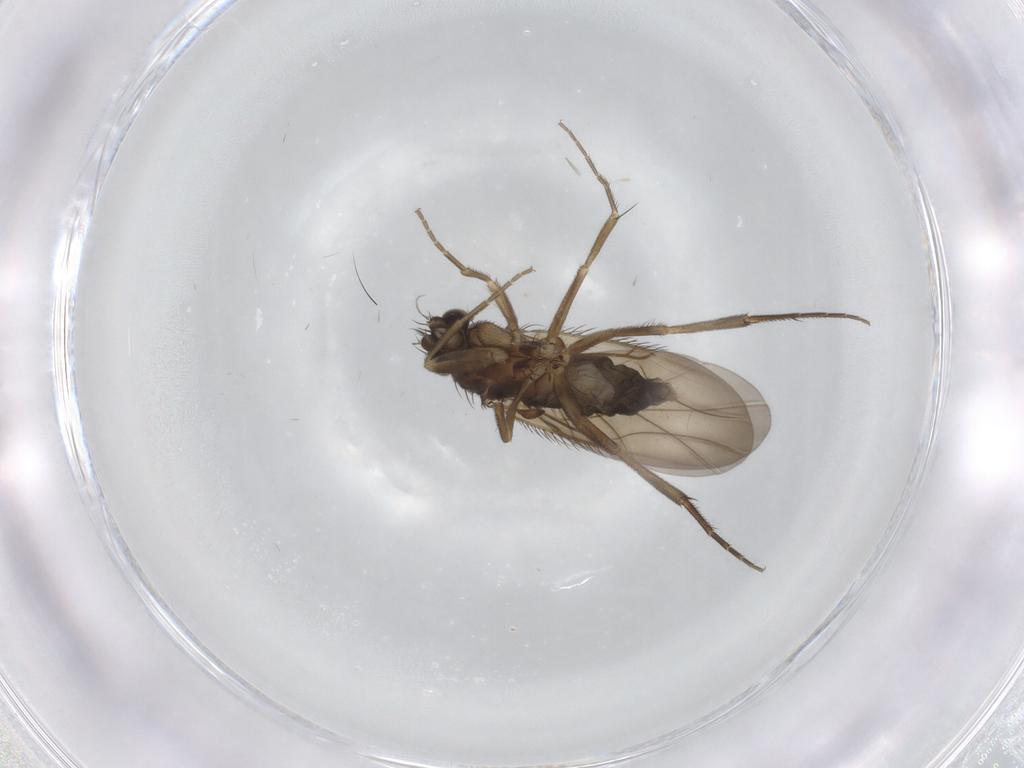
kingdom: Animalia
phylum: Arthropoda
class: Insecta
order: Diptera
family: Phoridae
